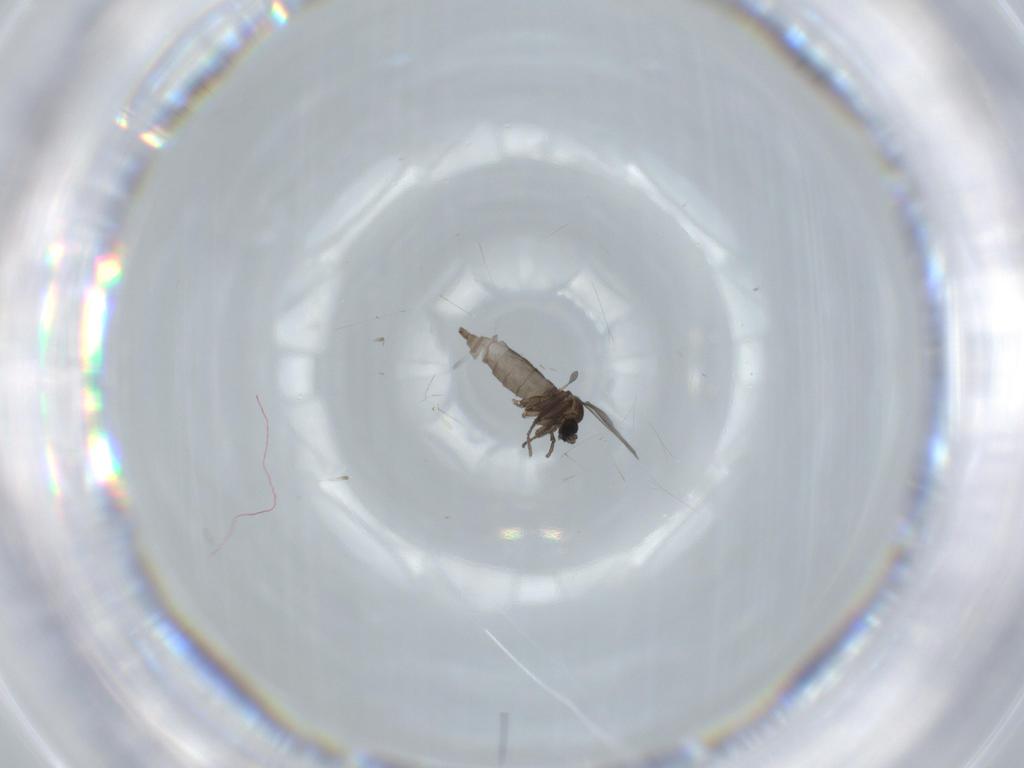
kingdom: Animalia
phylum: Arthropoda
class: Insecta
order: Diptera
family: Sciaridae
